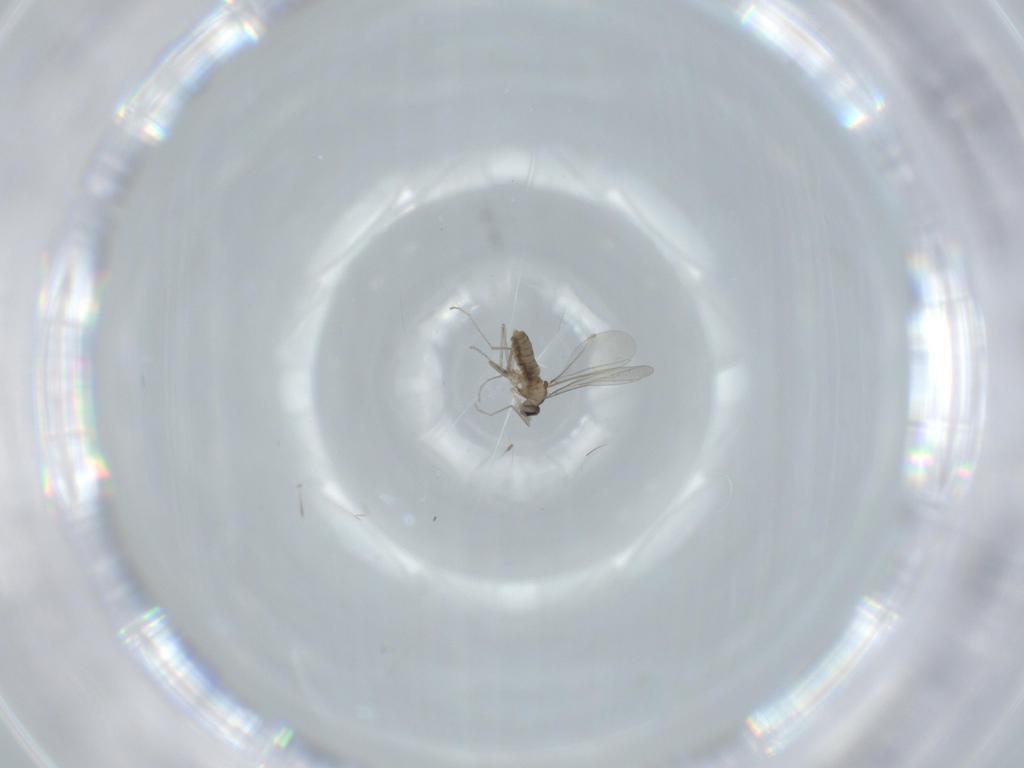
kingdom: Animalia
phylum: Arthropoda
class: Insecta
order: Diptera
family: Cecidomyiidae
